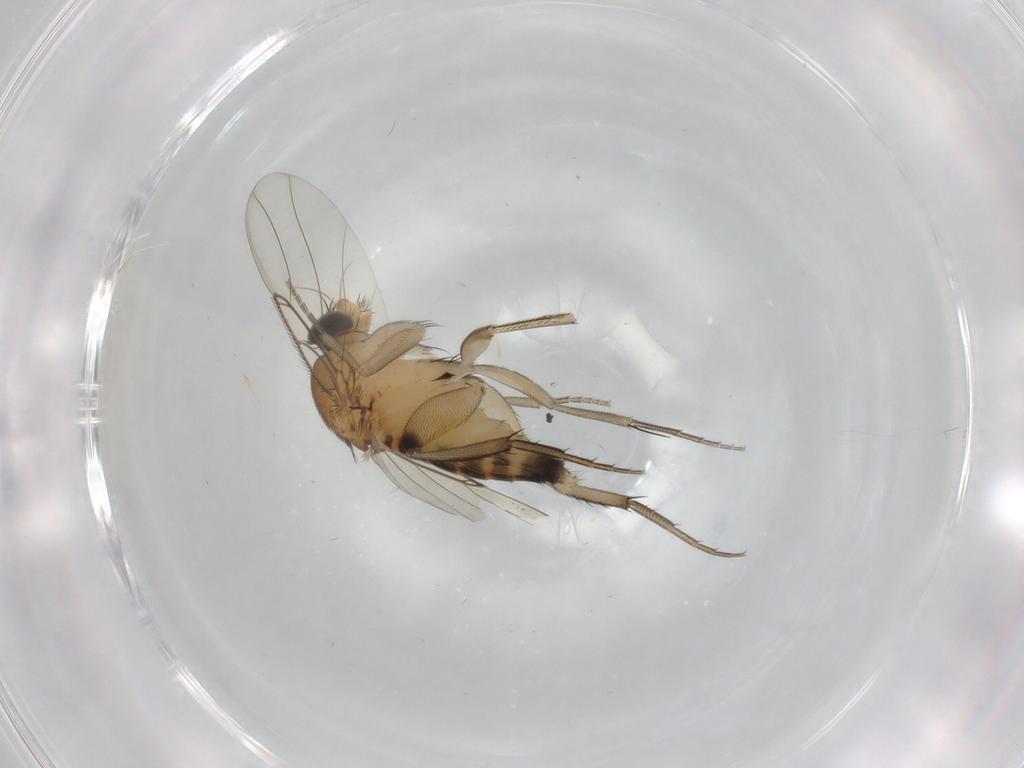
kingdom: Animalia
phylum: Arthropoda
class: Insecta
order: Diptera
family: Phoridae
